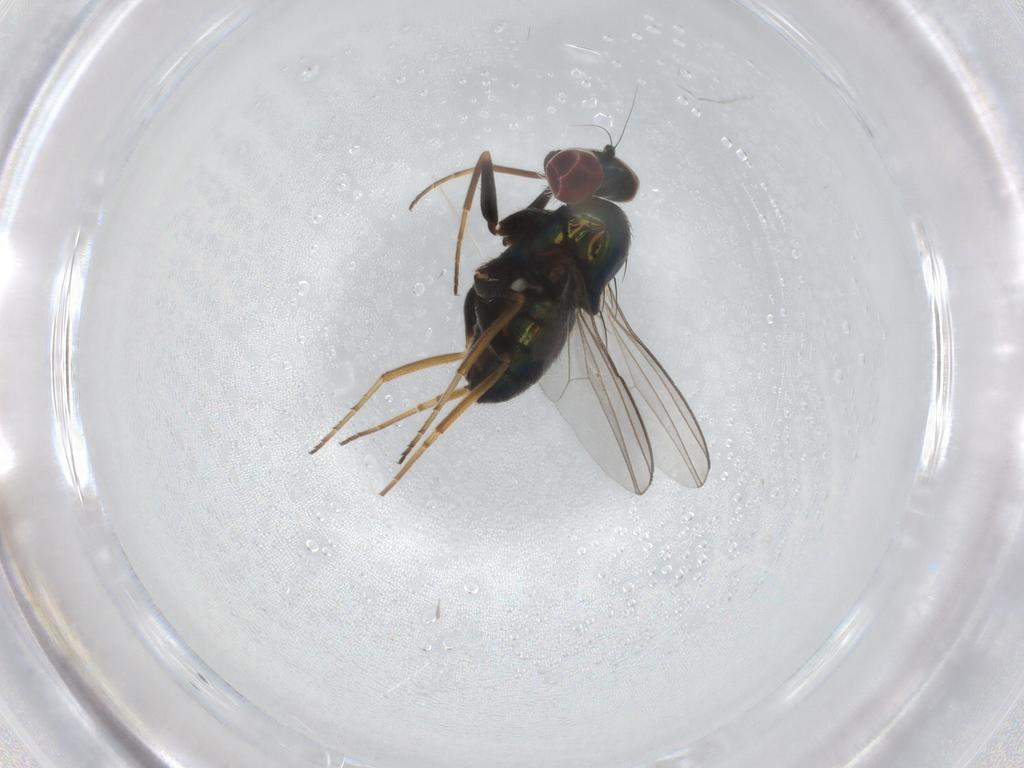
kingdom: Animalia
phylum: Arthropoda
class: Insecta
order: Diptera
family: Dolichopodidae
